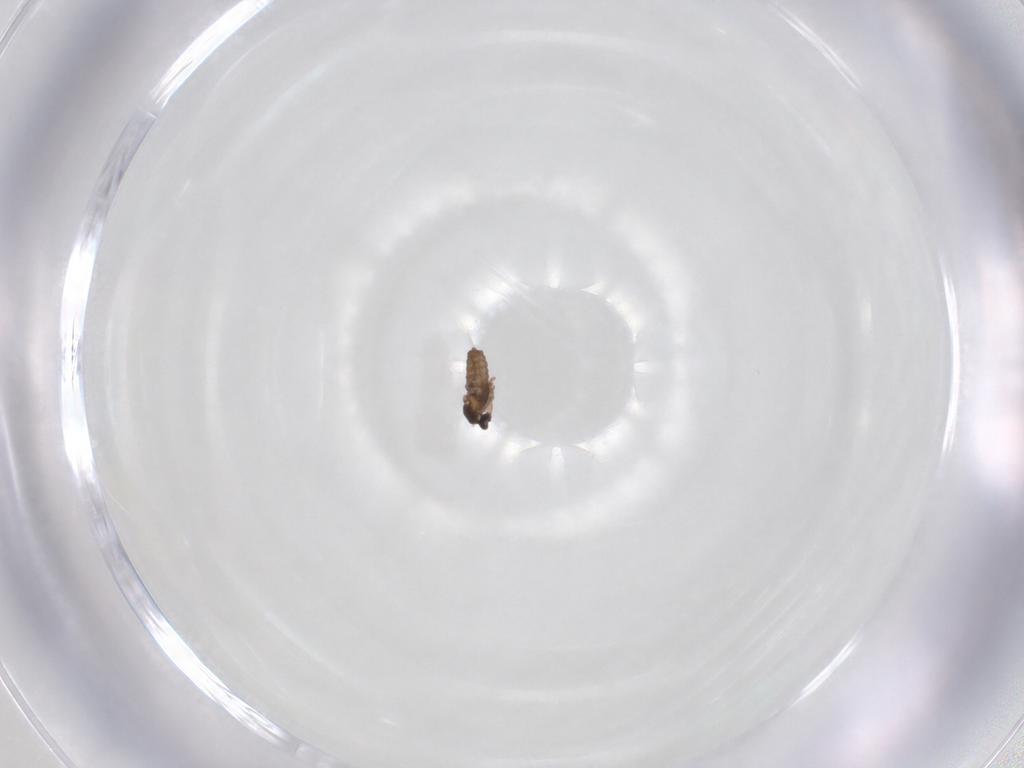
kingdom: Animalia
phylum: Arthropoda
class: Insecta
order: Diptera
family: Cecidomyiidae
